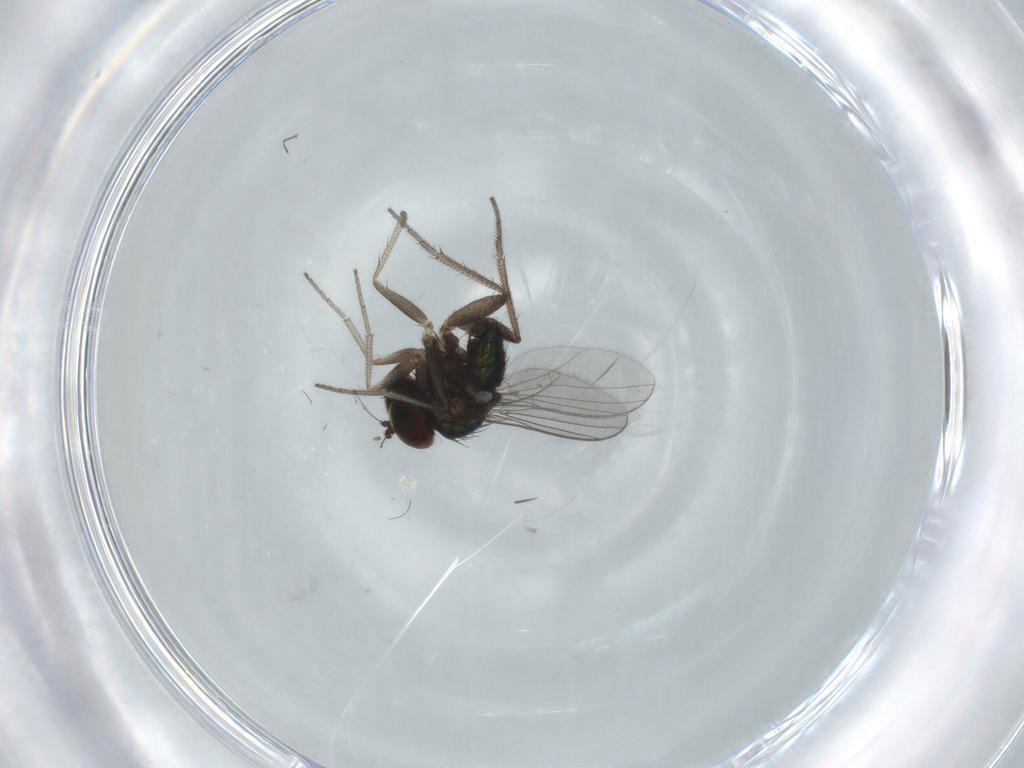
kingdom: Animalia
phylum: Arthropoda
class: Insecta
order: Diptera
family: Sciaridae
